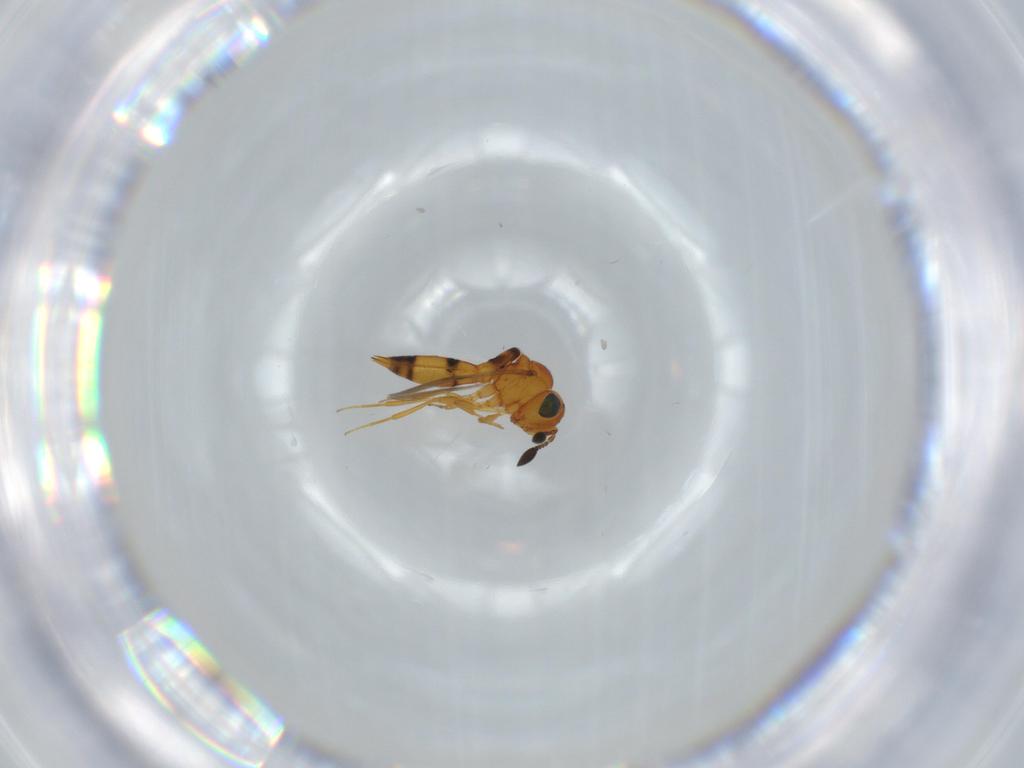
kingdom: Animalia
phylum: Arthropoda
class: Insecta
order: Hymenoptera
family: Scelionidae
